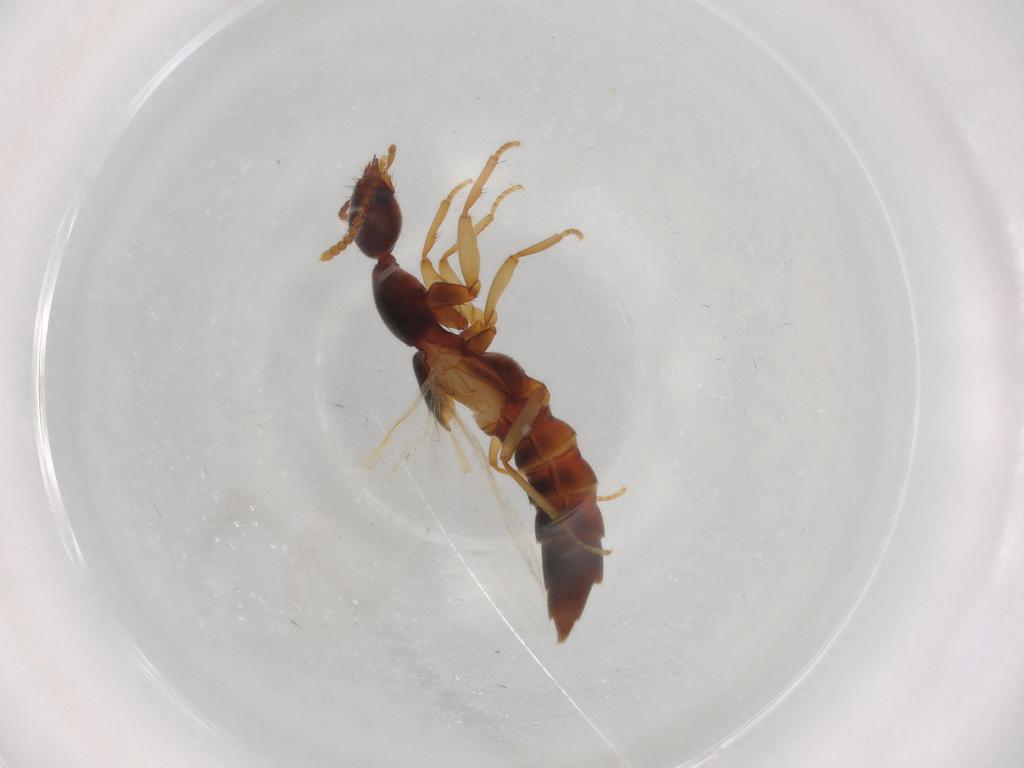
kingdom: Animalia
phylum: Arthropoda
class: Insecta
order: Coleoptera
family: Staphylinidae
